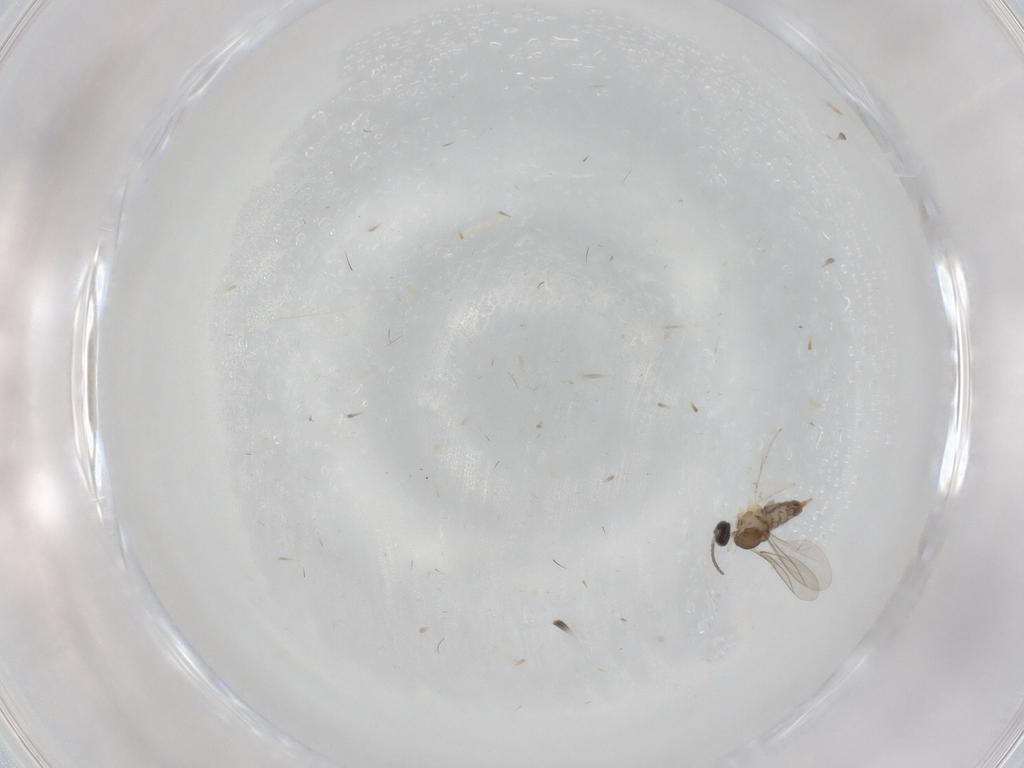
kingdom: Animalia
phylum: Arthropoda
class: Insecta
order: Diptera
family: Cecidomyiidae
